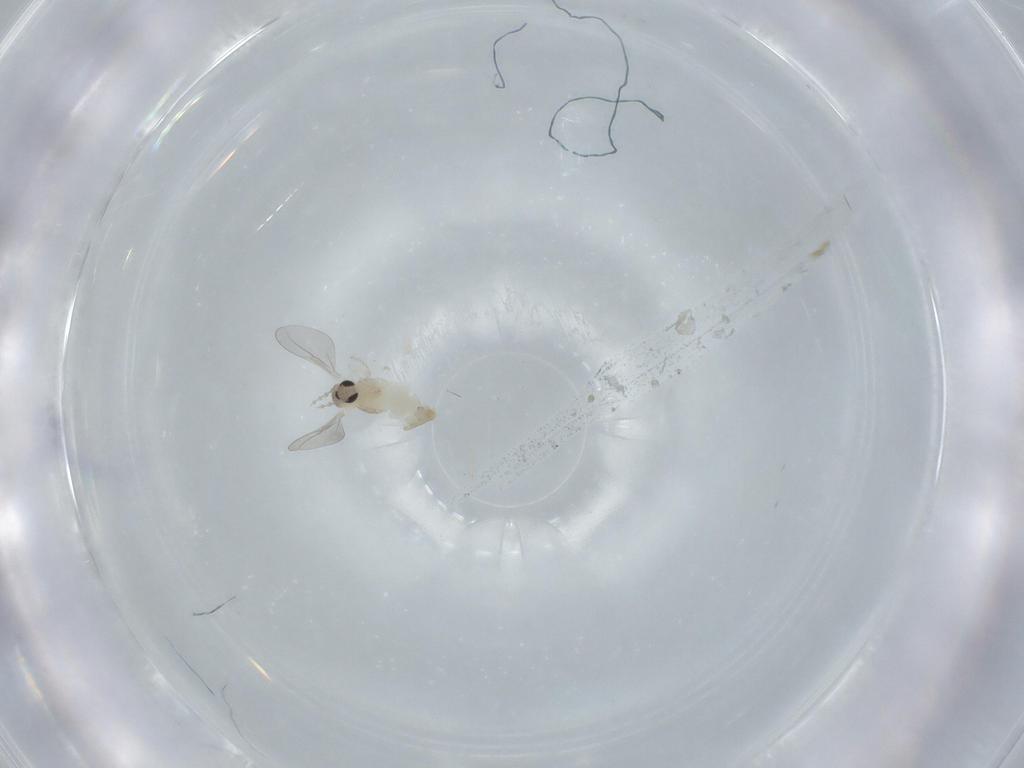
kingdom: Animalia
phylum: Arthropoda
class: Insecta
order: Diptera
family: Cecidomyiidae
